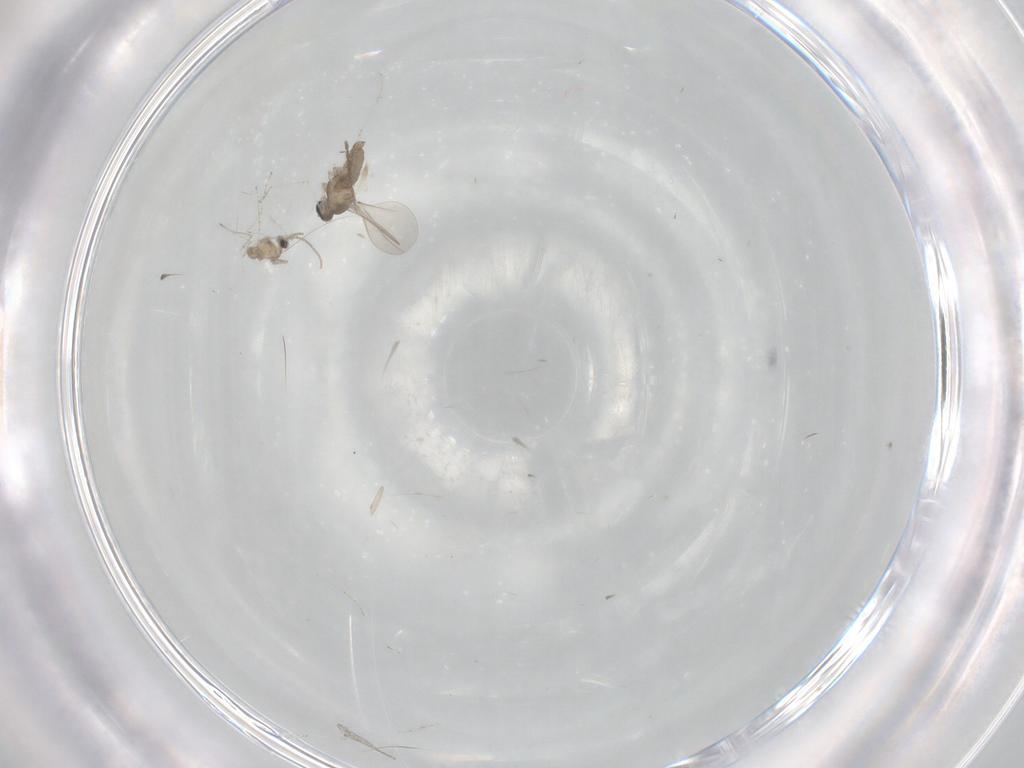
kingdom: Animalia
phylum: Arthropoda
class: Insecta
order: Diptera
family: Cecidomyiidae
